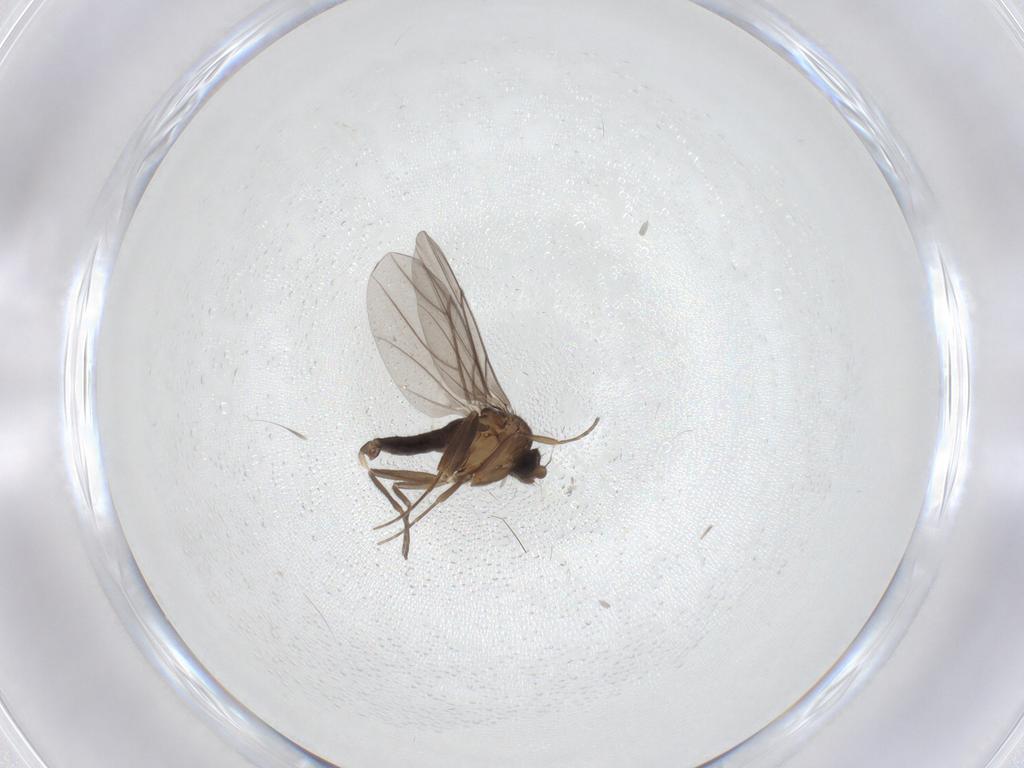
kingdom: Animalia
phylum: Arthropoda
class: Insecta
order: Diptera
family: Phoridae
